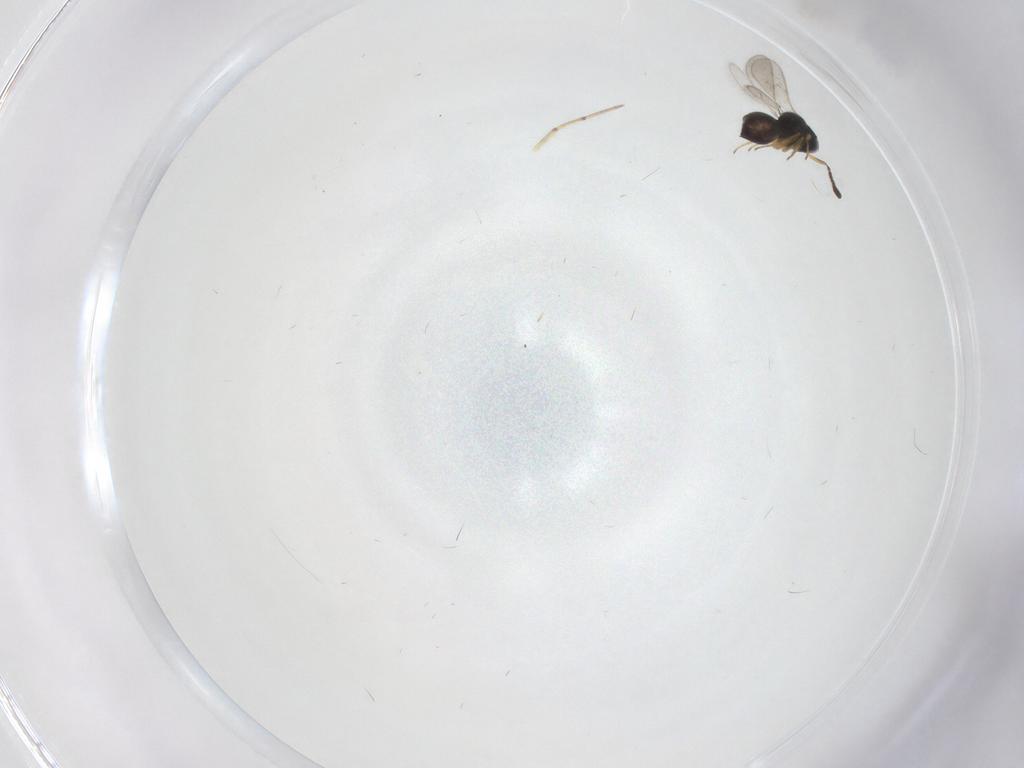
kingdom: Animalia
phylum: Arthropoda
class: Insecta
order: Hymenoptera
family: Scelionidae
